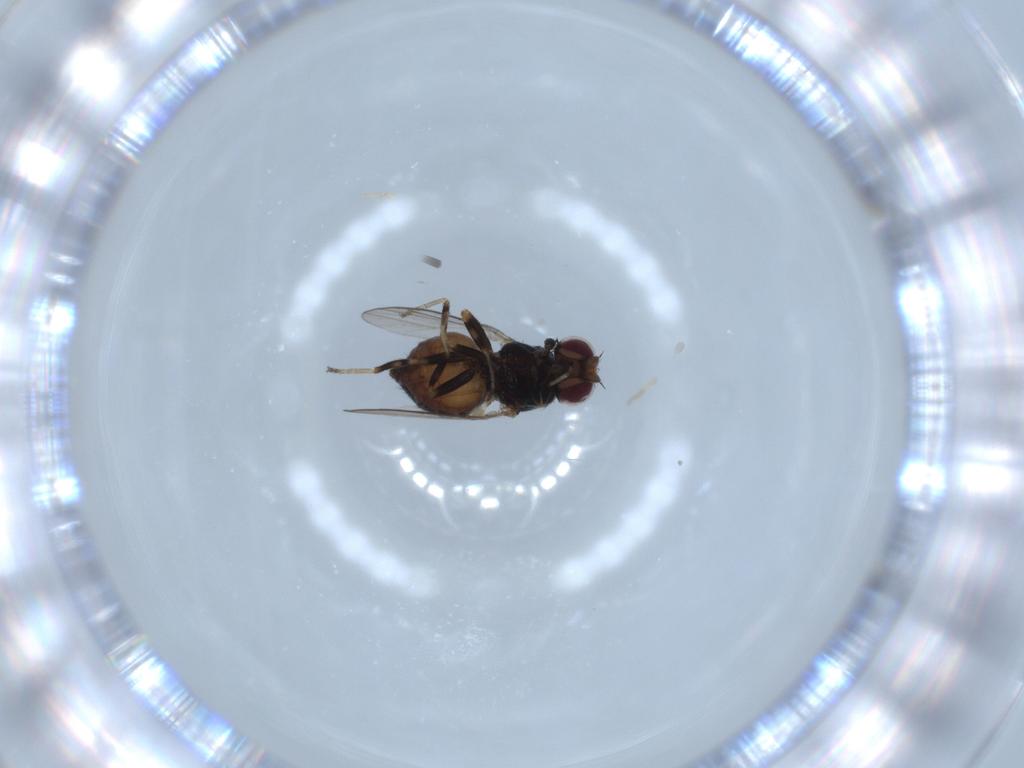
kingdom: Animalia
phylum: Arthropoda
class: Insecta
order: Diptera
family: Chloropidae
